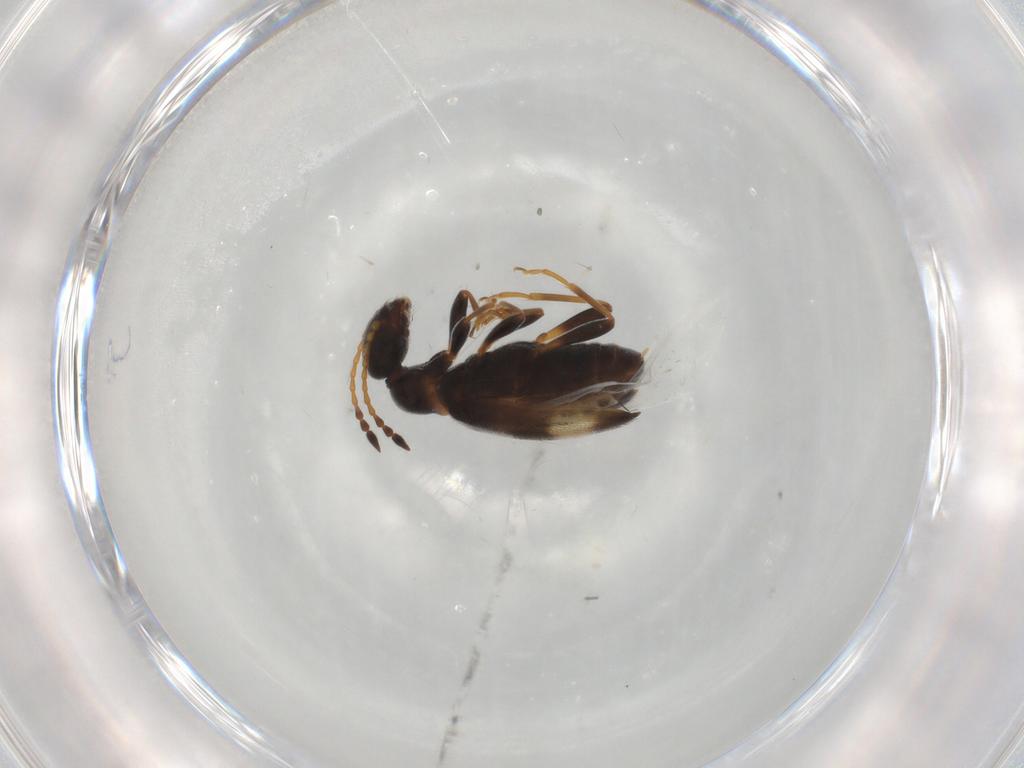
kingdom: Animalia
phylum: Arthropoda
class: Insecta
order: Coleoptera
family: Anthicidae
